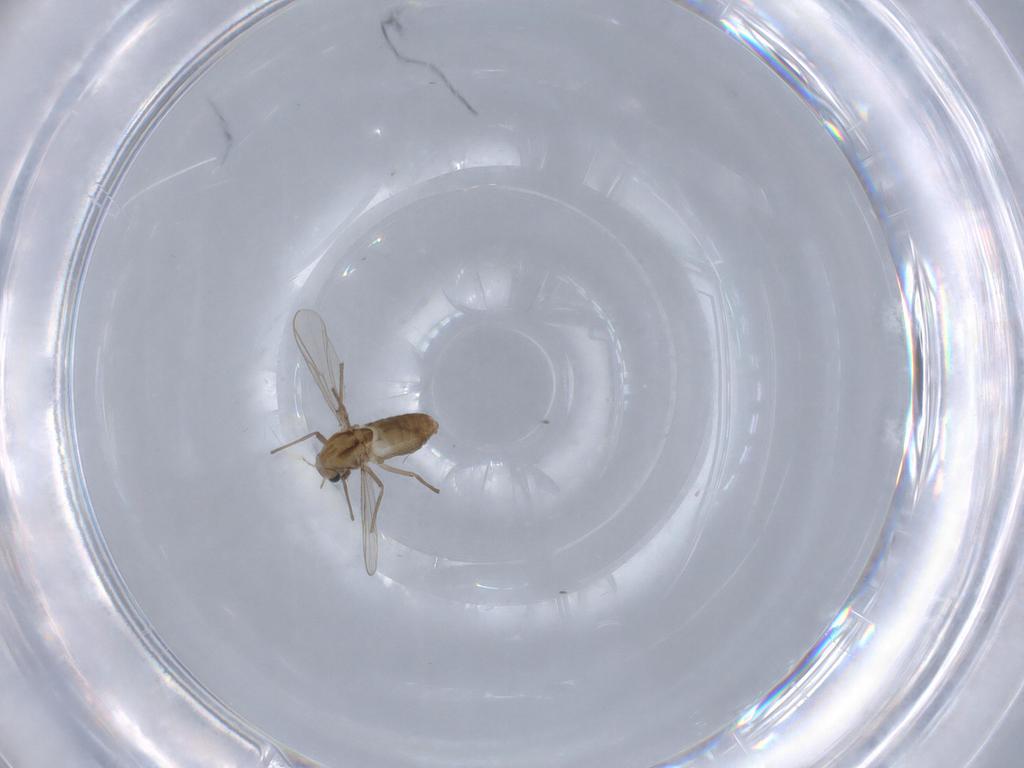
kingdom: Animalia
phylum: Arthropoda
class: Insecta
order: Diptera
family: Chironomidae
